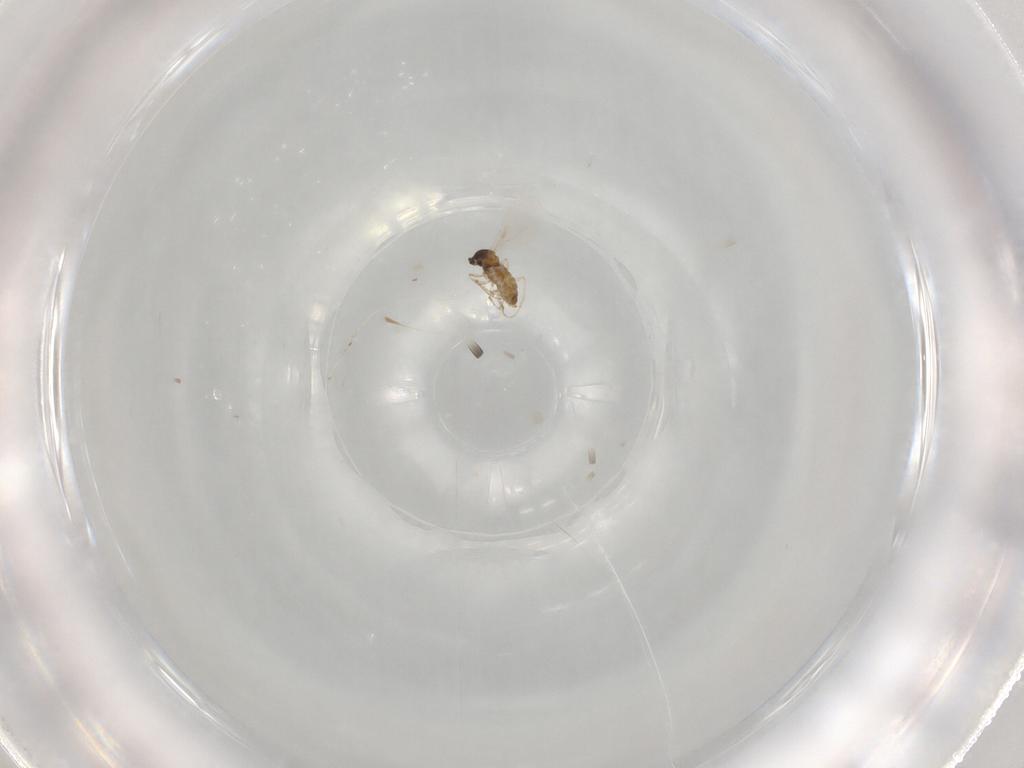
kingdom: Animalia
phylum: Arthropoda
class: Insecta
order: Diptera
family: Cecidomyiidae
